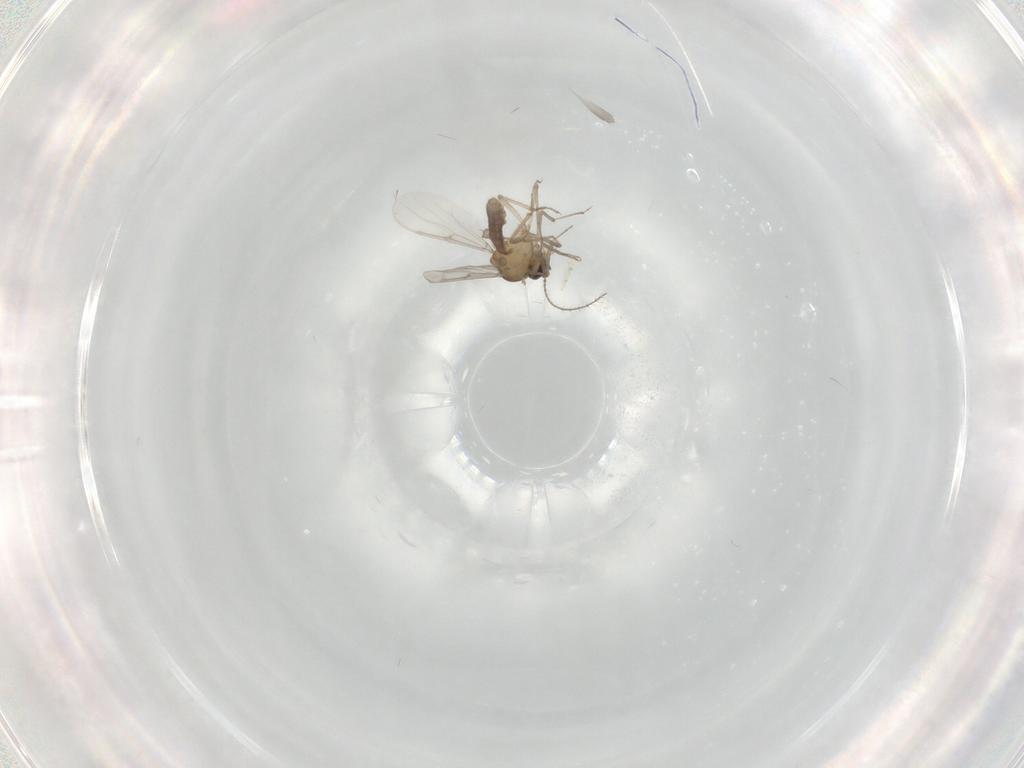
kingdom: Animalia
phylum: Arthropoda
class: Insecta
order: Diptera
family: Ceratopogonidae
